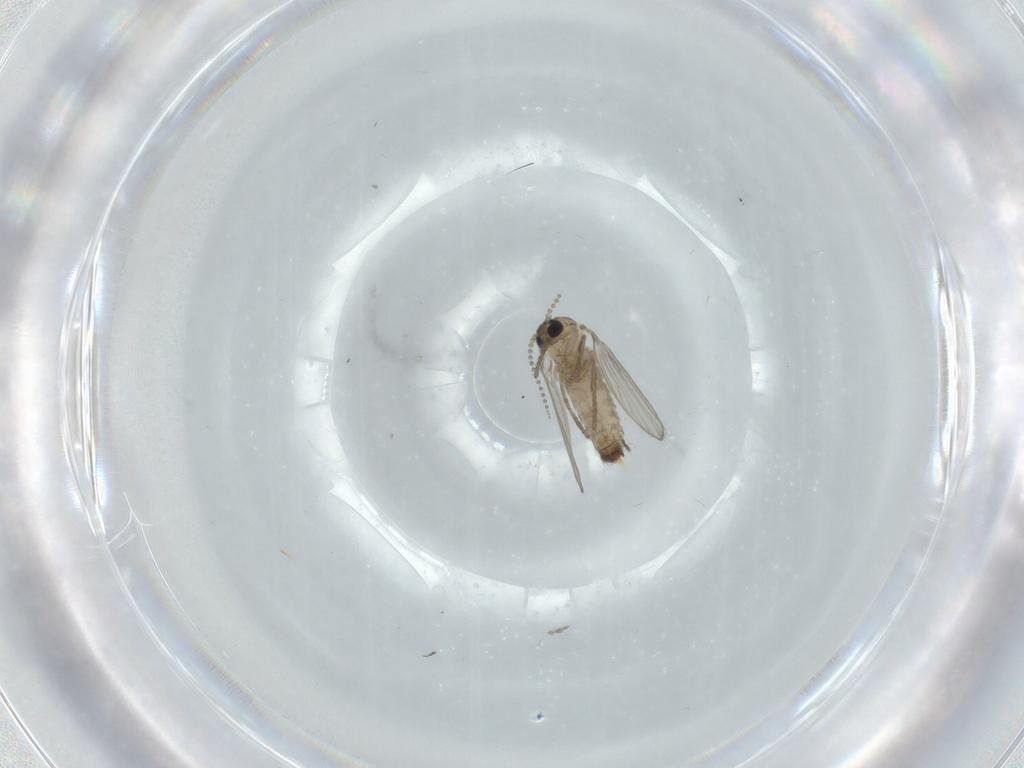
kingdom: Animalia
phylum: Arthropoda
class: Insecta
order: Diptera
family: Psychodidae
